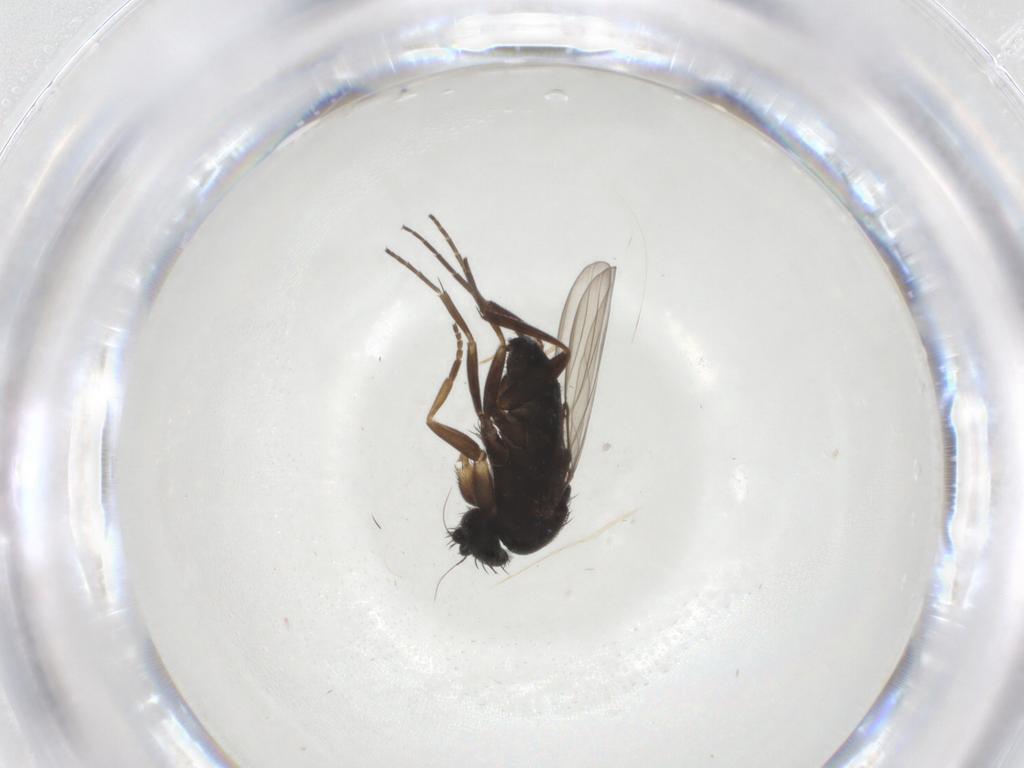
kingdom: Animalia
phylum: Arthropoda
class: Insecta
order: Diptera
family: Phoridae
